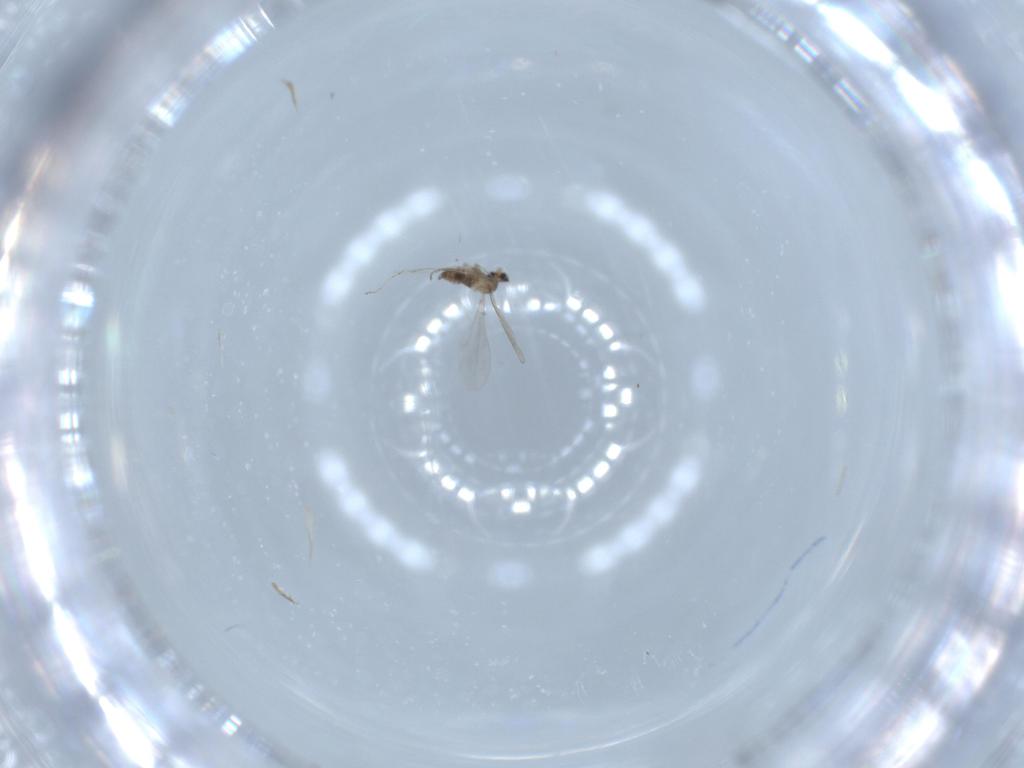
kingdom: Animalia
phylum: Arthropoda
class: Insecta
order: Diptera
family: Cecidomyiidae
